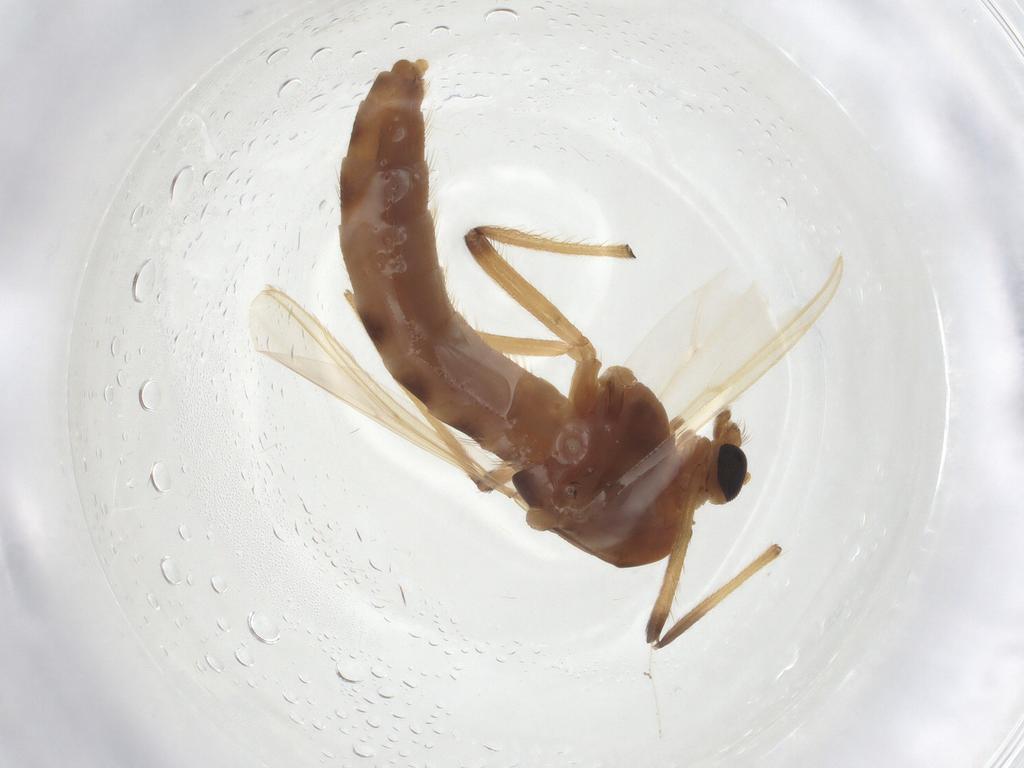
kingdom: Animalia
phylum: Arthropoda
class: Insecta
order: Diptera
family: Chironomidae
